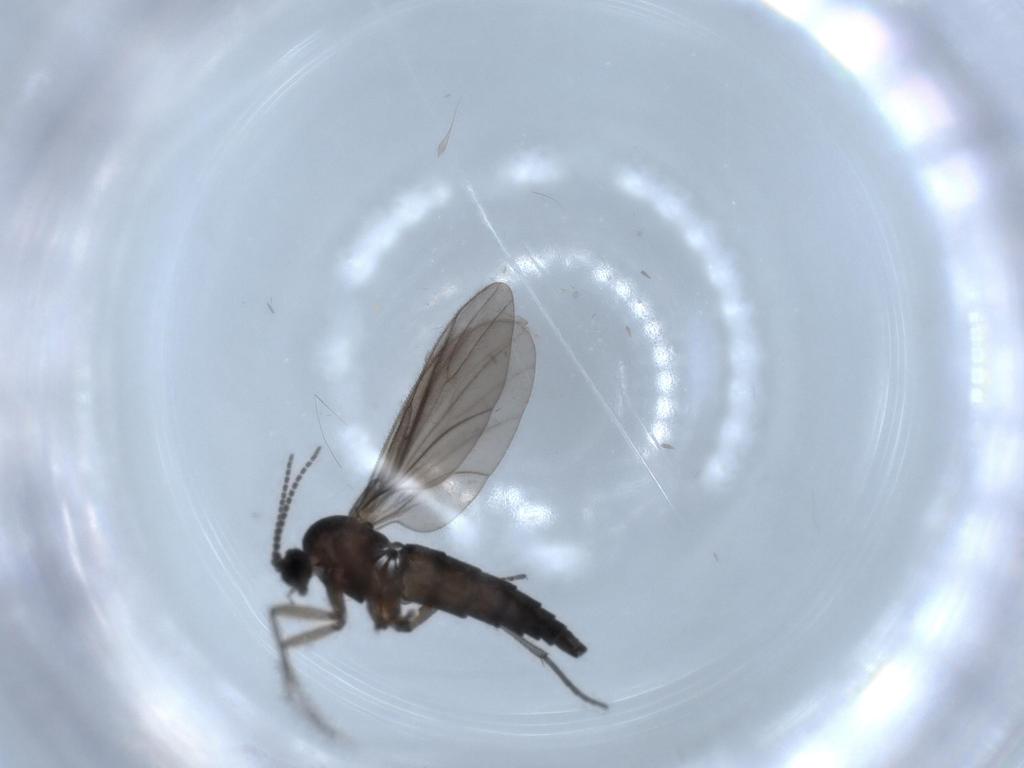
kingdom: Animalia
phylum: Arthropoda
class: Insecta
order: Diptera
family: Sciaridae
